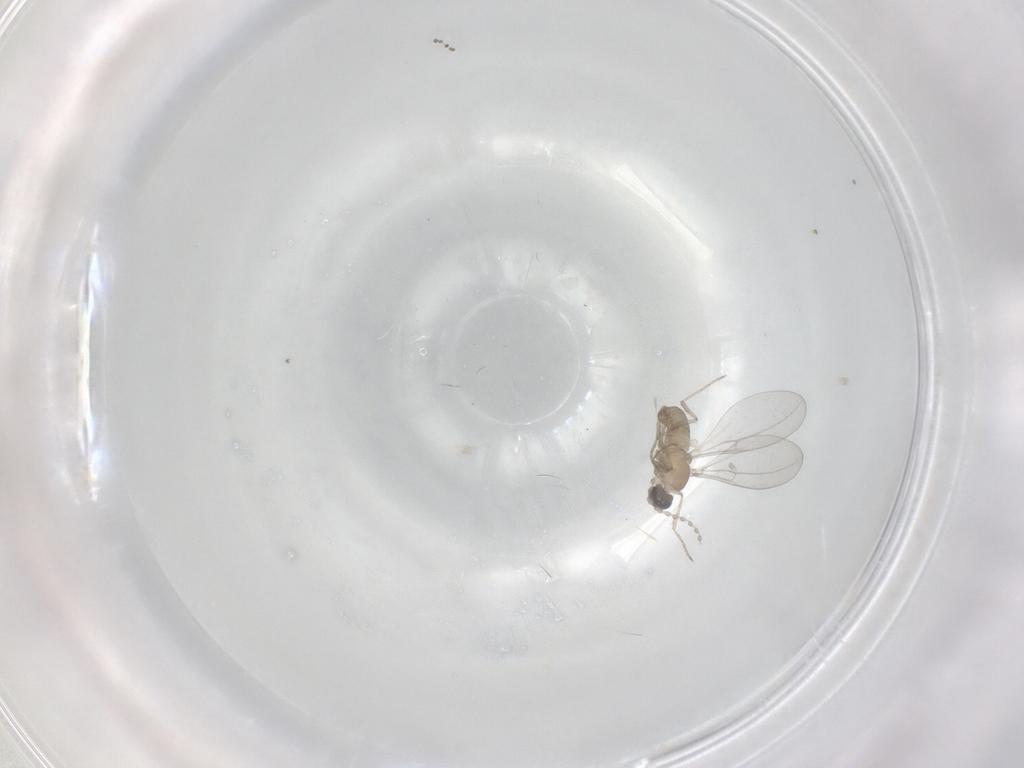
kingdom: Animalia
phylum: Arthropoda
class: Insecta
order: Diptera
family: Cecidomyiidae
